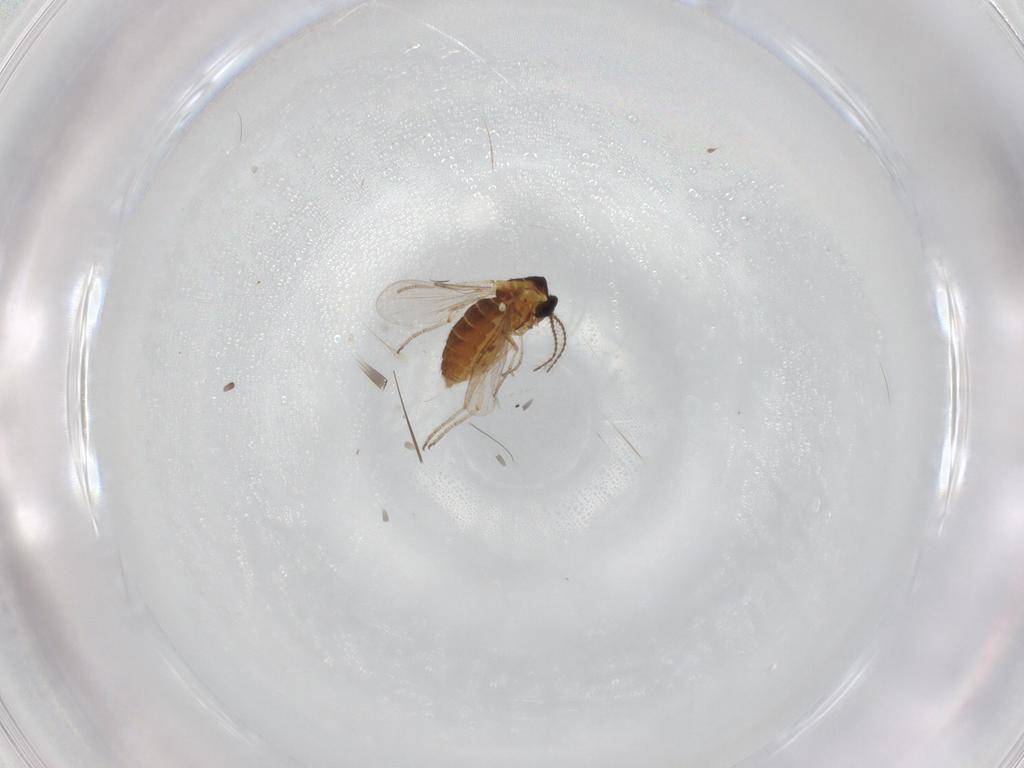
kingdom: Animalia
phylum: Arthropoda
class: Insecta
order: Diptera
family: Ceratopogonidae
